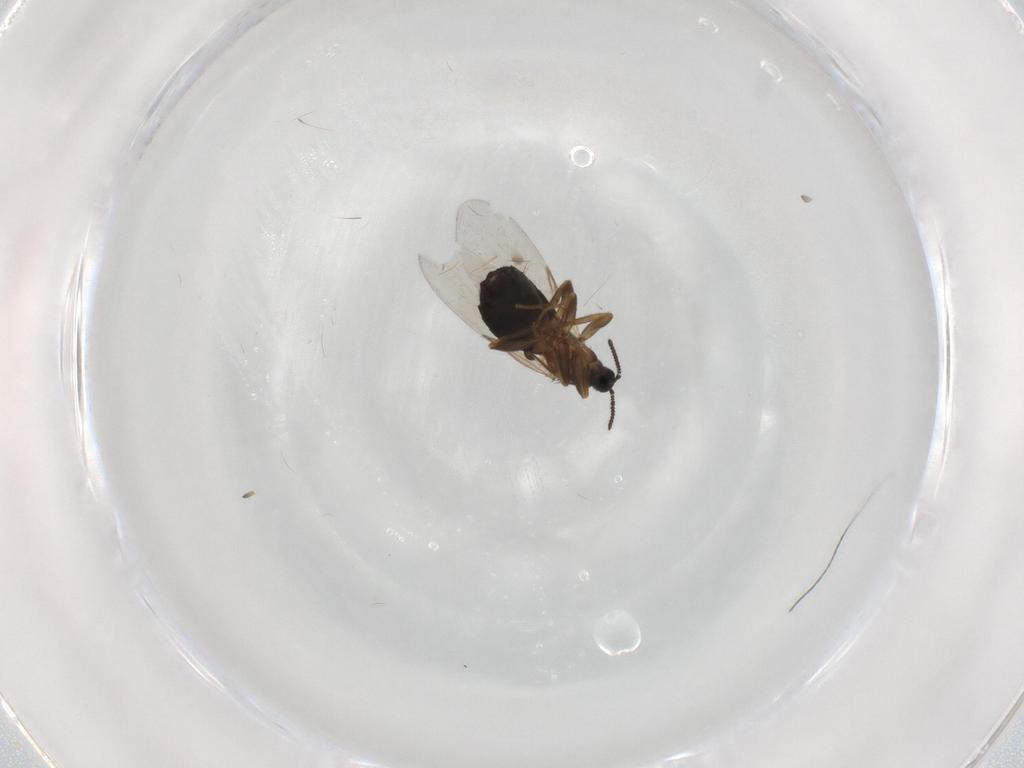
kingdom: Animalia
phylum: Arthropoda
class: Insecta
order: Diptera
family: Scatopsidae
